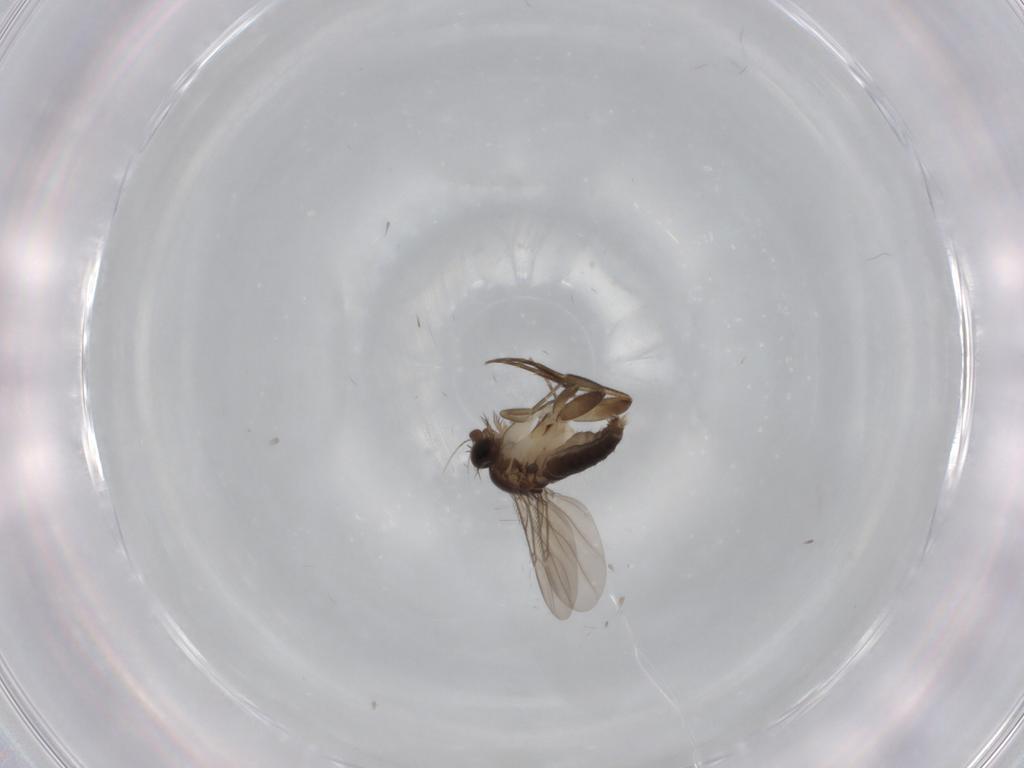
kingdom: Animalia
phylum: Arthropoda
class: Insecta
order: Diptera
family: Phoridae
